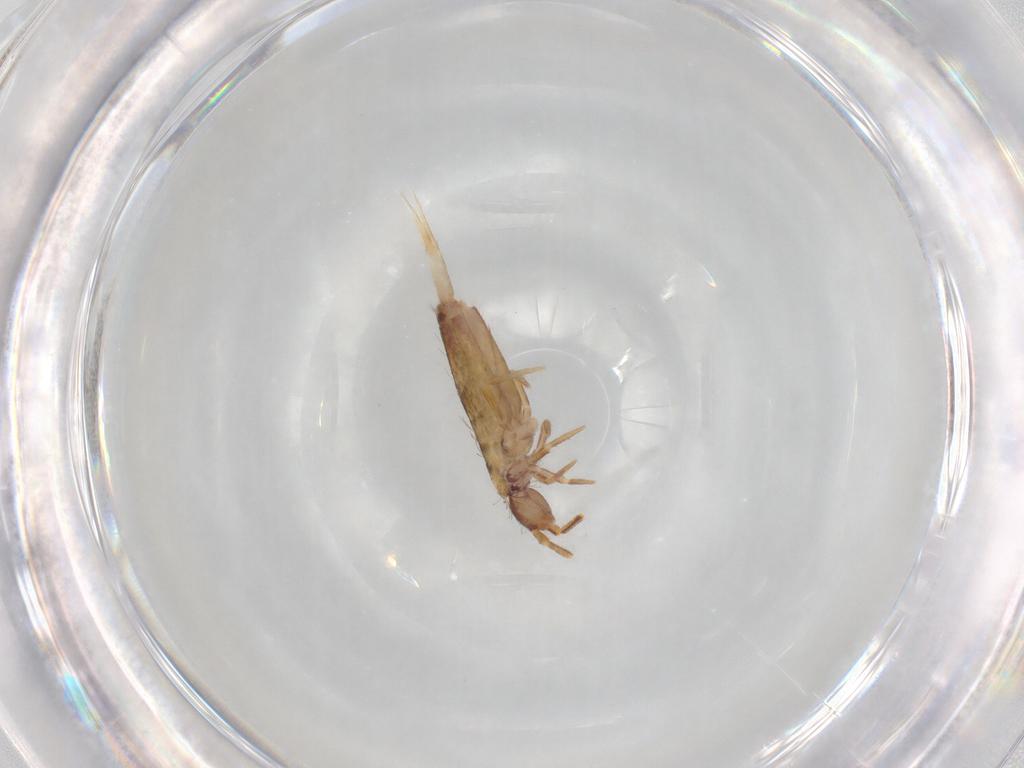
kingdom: Animalia
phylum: Arthropoda
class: Collembola
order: Entomobryomorpha
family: Entomobryidae
